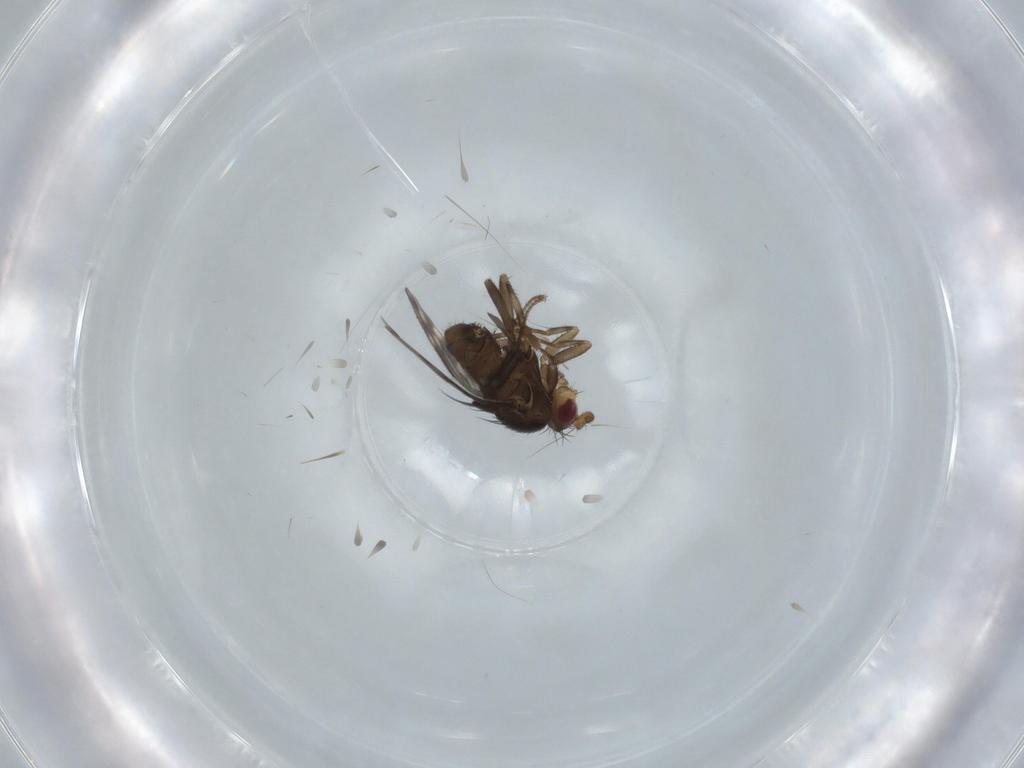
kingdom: Animalia
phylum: Arthropoda
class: Insecta
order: Diptera
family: Sphaeroceridae
